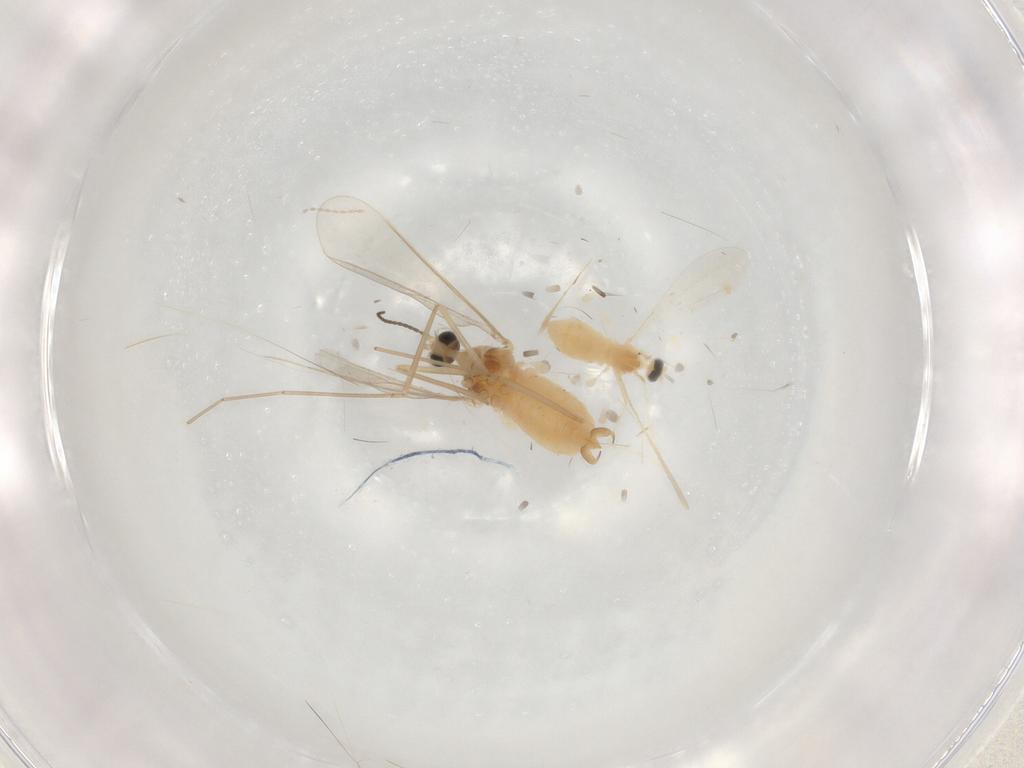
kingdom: Animalia
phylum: Arthropoda
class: Insecta
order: Diptera
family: Cecidomyiidae
